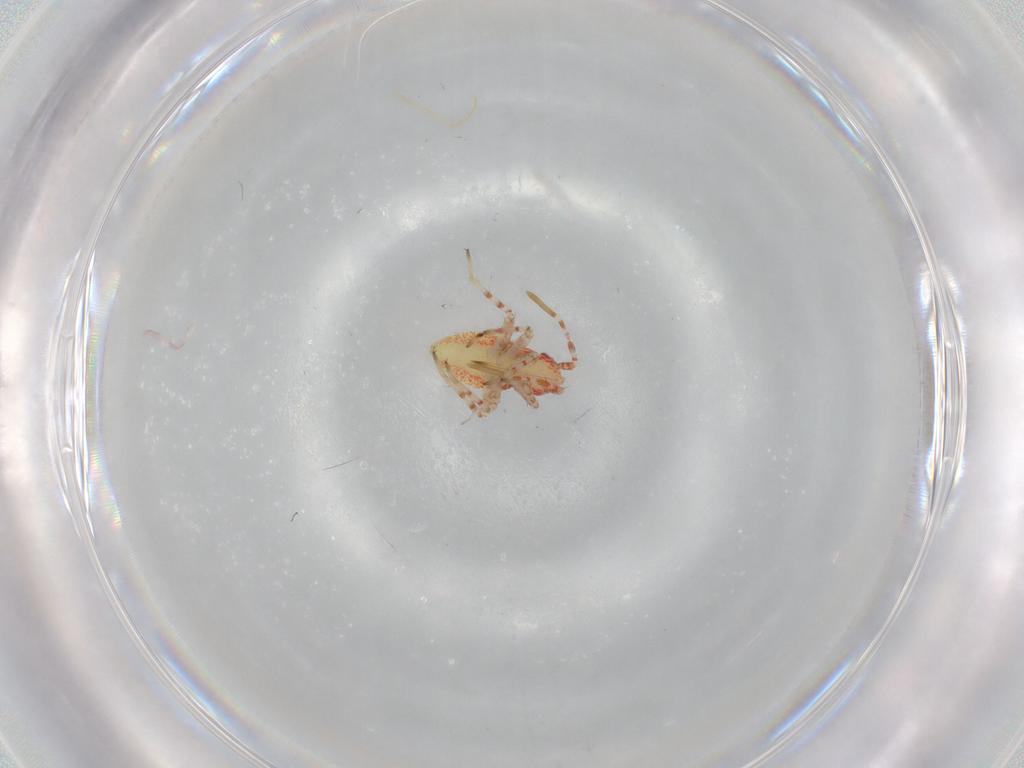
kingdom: Animalia
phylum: Arthropoda
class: Insecta
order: Hemiptera
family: Miridae
